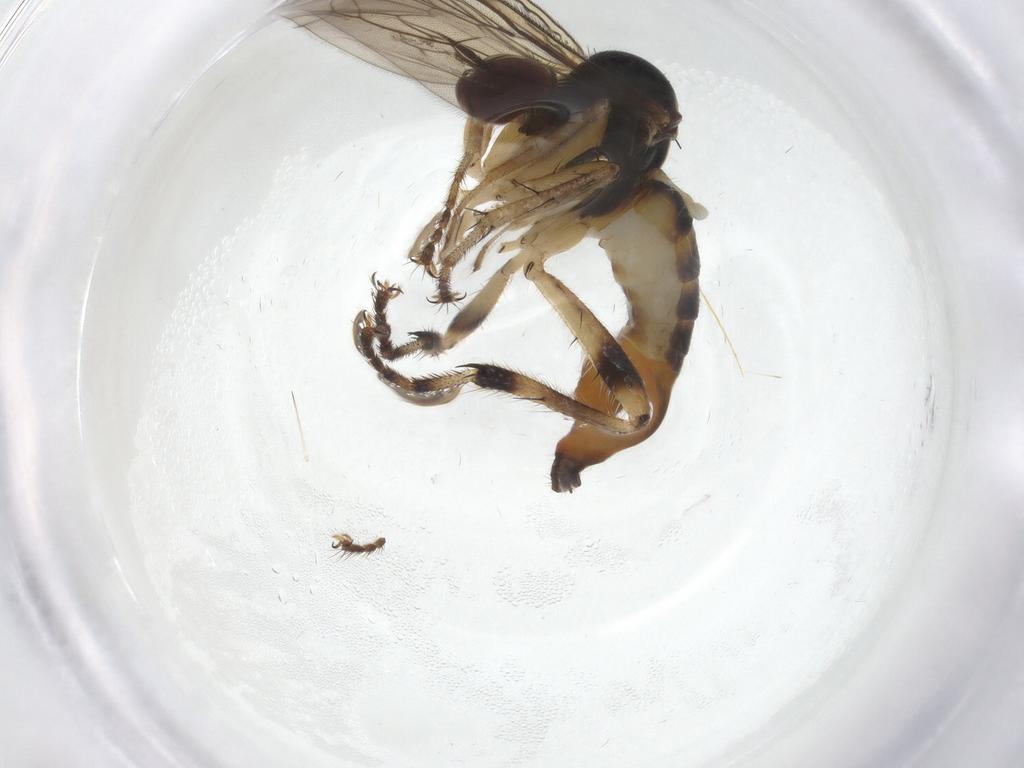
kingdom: Animalia
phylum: Arthropoda
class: Insecta
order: Diptera
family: Hybotidae
